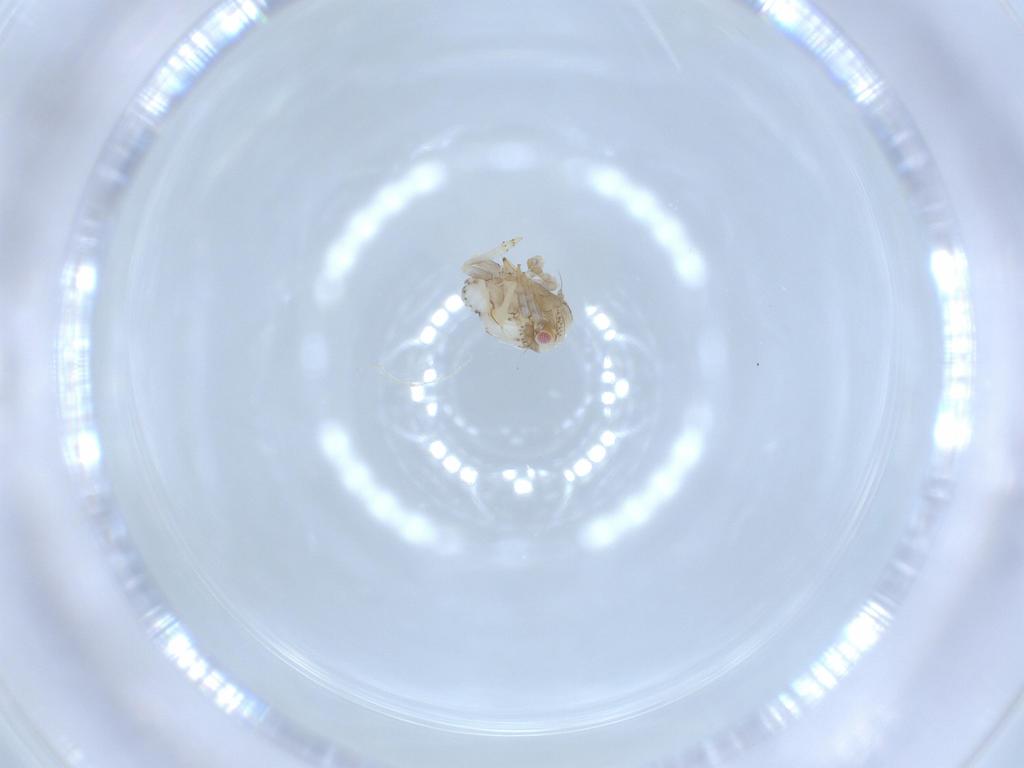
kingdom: Animalia
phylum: Arthropoda
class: Insecta
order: Hemiptera
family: Acanaloniidae
